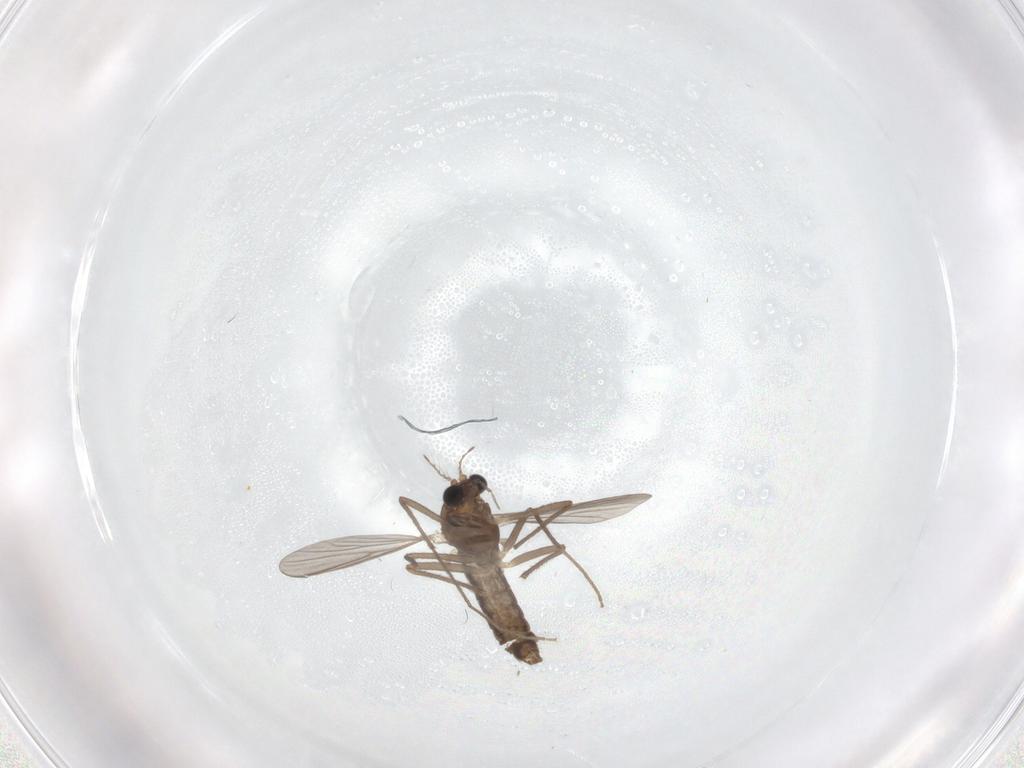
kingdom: Animalia
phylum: Arthropoda
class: Insecta
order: Diptera
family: Chironomidae
